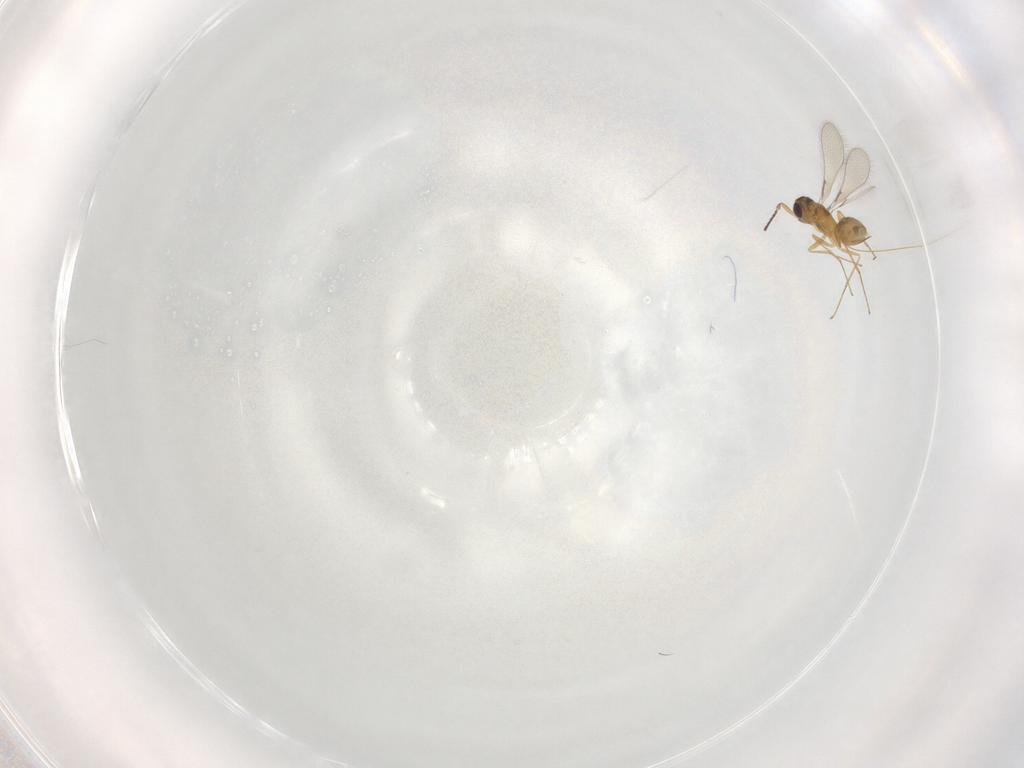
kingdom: Animalia
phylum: Arthropoda
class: Insecta
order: Hymenoptera
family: Mymaridae
